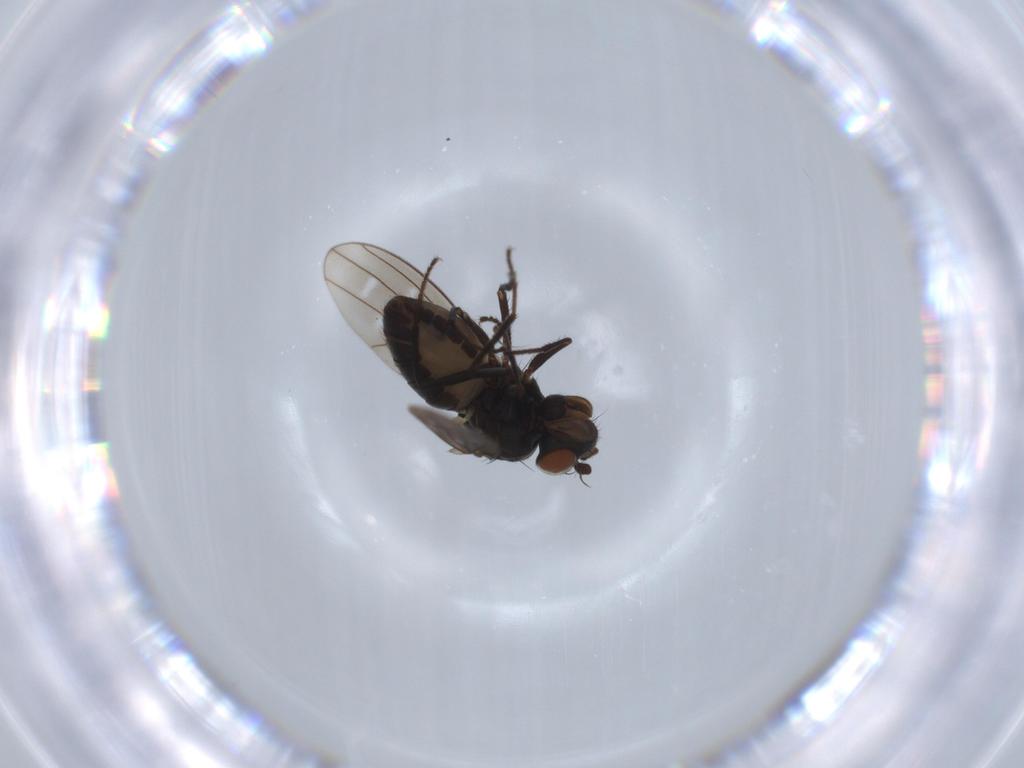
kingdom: Animalia
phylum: Arthropoda
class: Insecta
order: Diptera
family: Ephydridae
